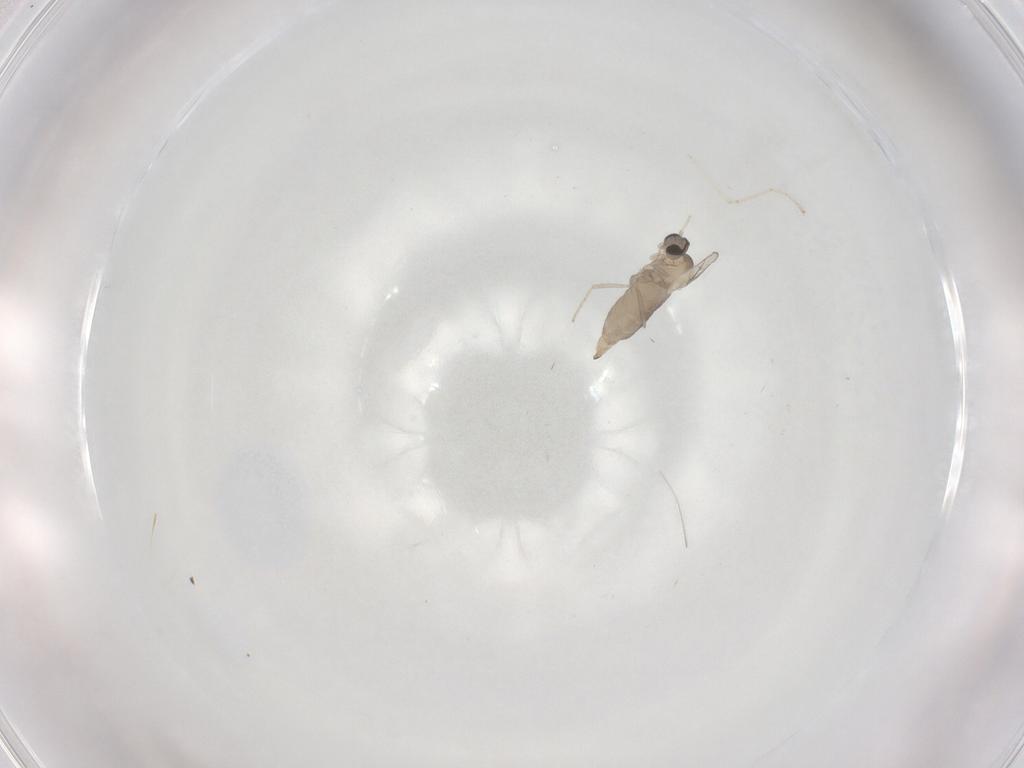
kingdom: Animalia
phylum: Arthropoda
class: Insecta
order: Diptera
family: Cecidomyiidae
